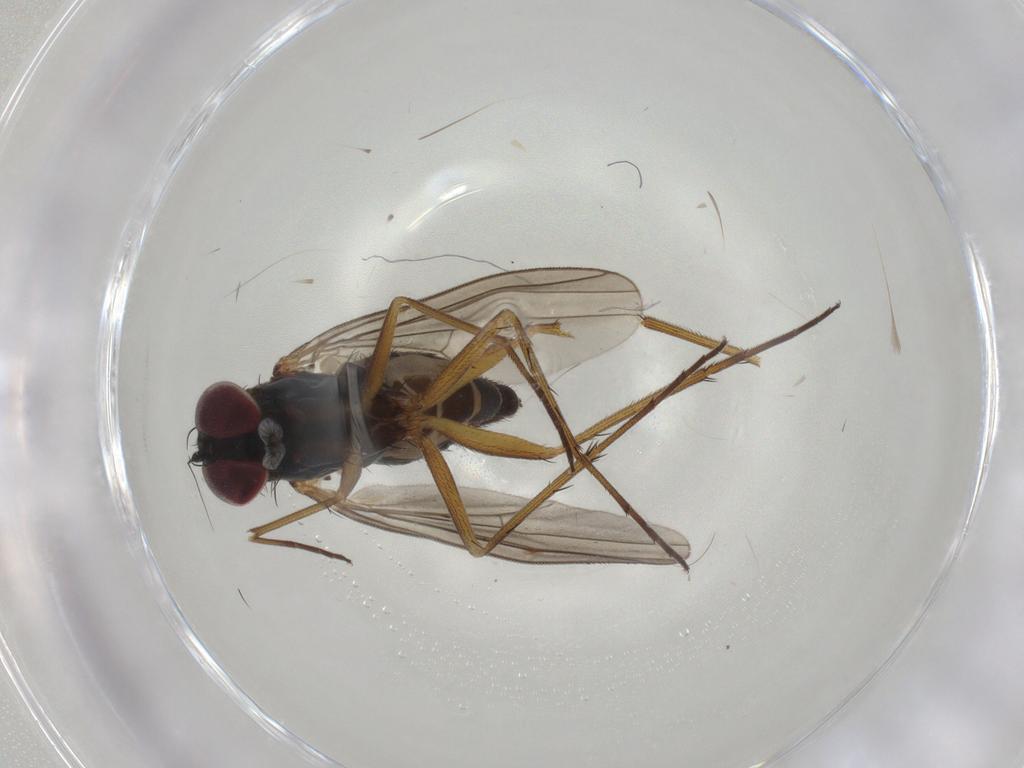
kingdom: Animalia
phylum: Arthropoda
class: Insecta
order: Diptera
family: Dolichopodidae
